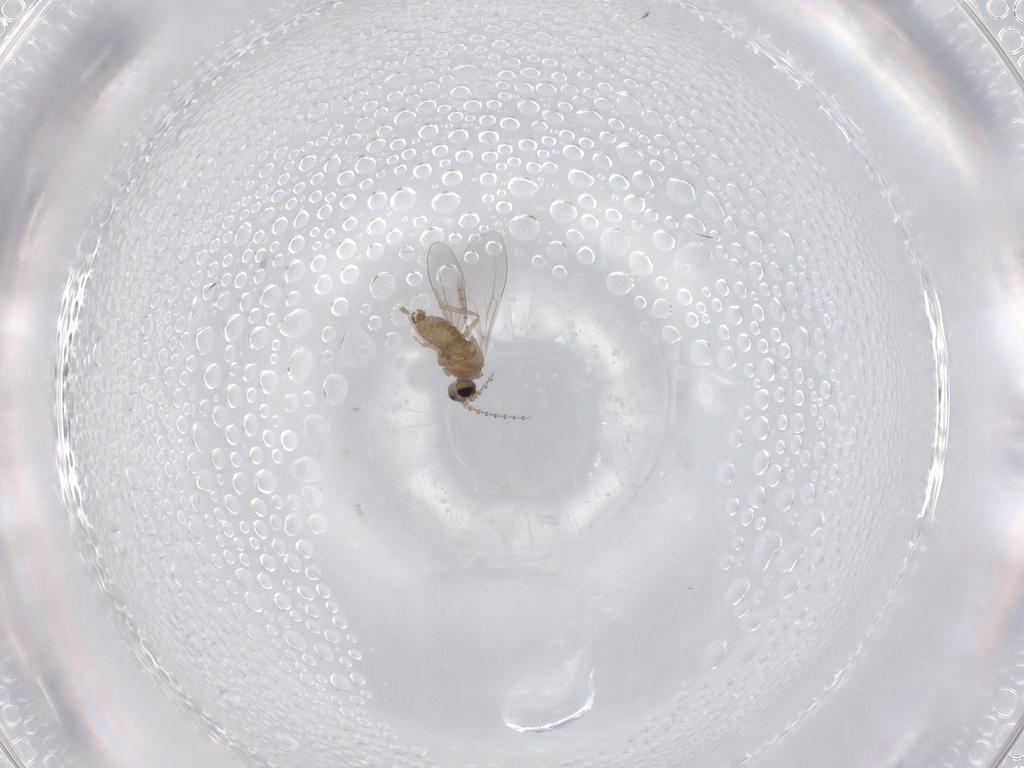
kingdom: Animalia
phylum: Arthropoda
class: Insecta
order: Diptera
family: Cecidomyiidae
